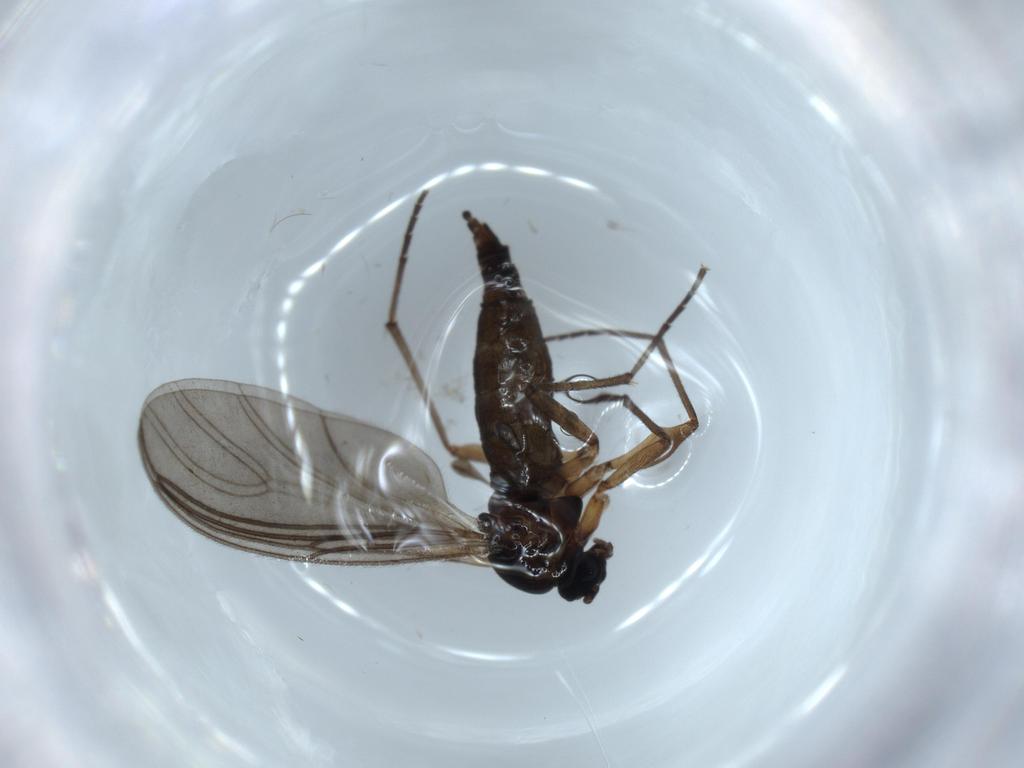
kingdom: Animalia
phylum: Arthropoda
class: Insecta
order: Diptera
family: Sciaridae
